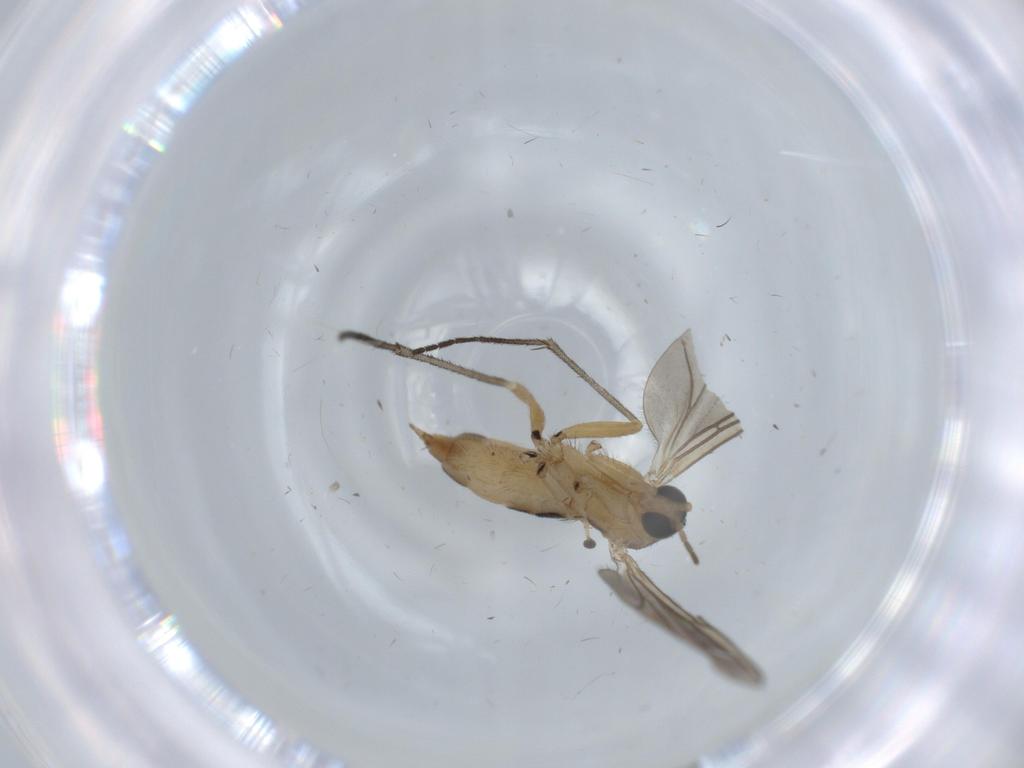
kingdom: Animalia
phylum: Arthropoda
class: Insecta
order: Diptera
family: Sciaridae
